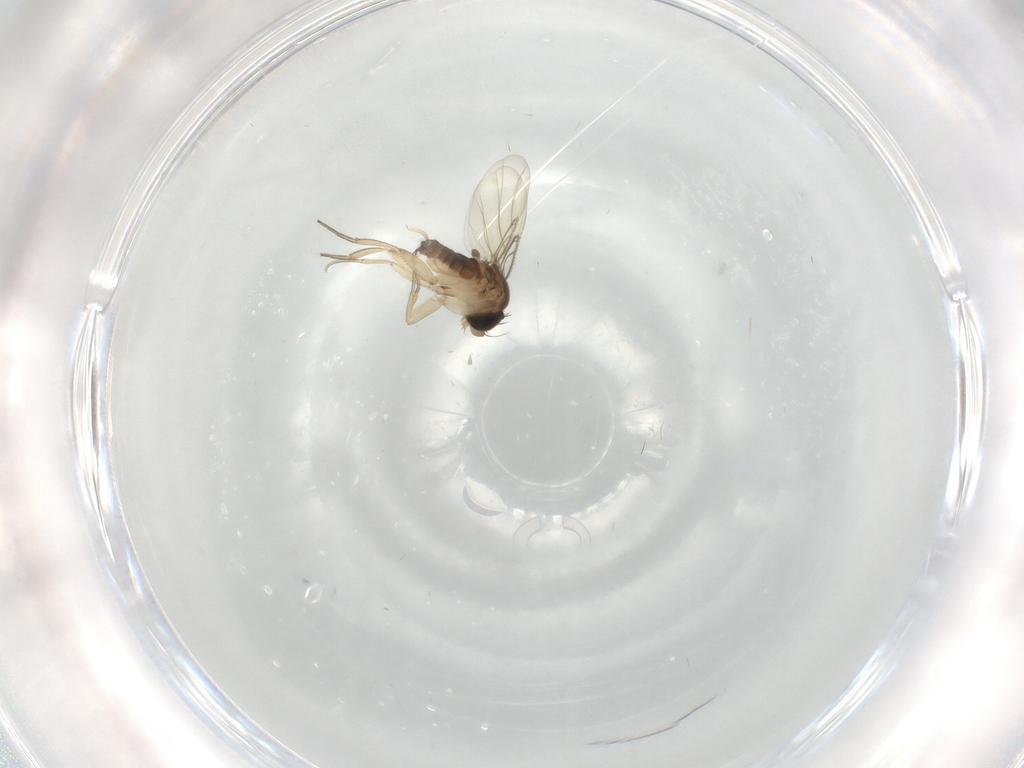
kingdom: Animalia
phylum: Arthropoda
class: Insecta
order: Diptera
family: Phoridae
